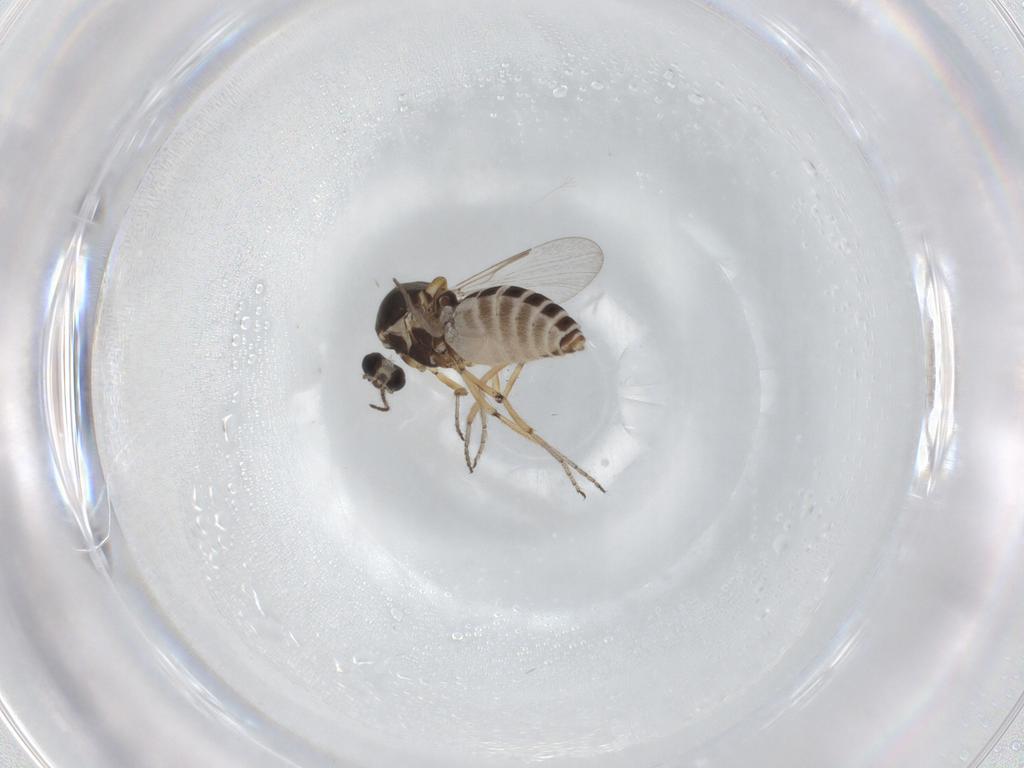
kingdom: Animalia
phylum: Arthropoda
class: Insecta
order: Diptera
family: Ceratopogonidae
